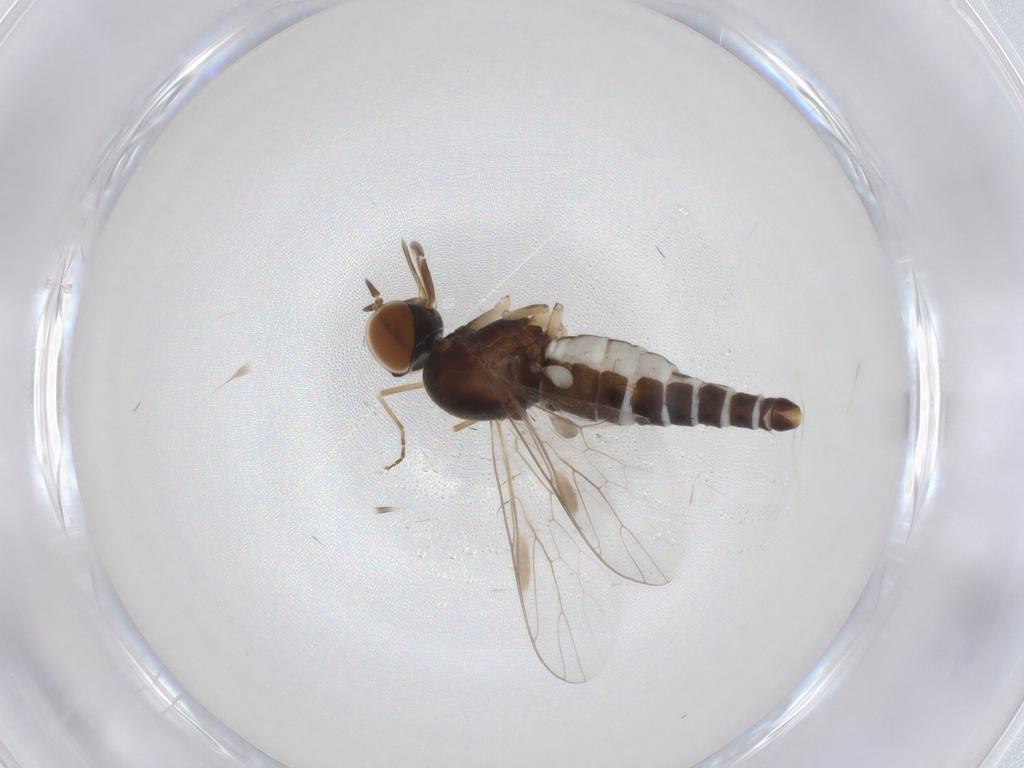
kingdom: Animalia
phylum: Arthropoda
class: Insecta
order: Diptera
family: Scenopinidae
